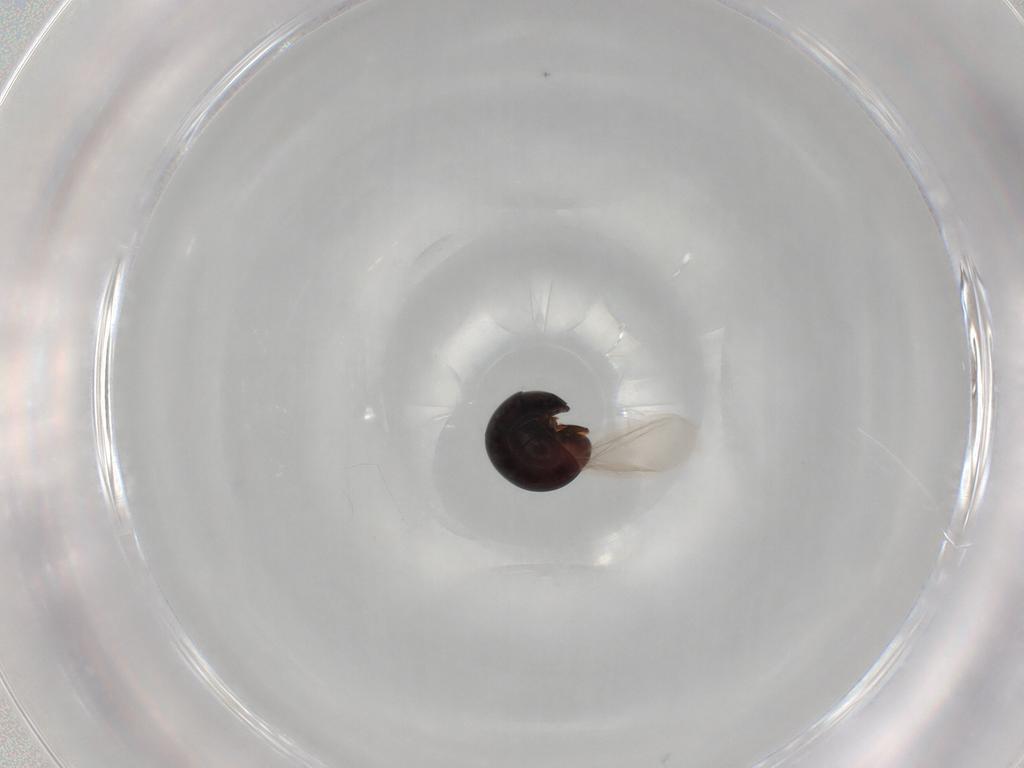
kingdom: Animalia
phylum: Arthropoda
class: Insecta
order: Coleoptera
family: Cybocephalidae
